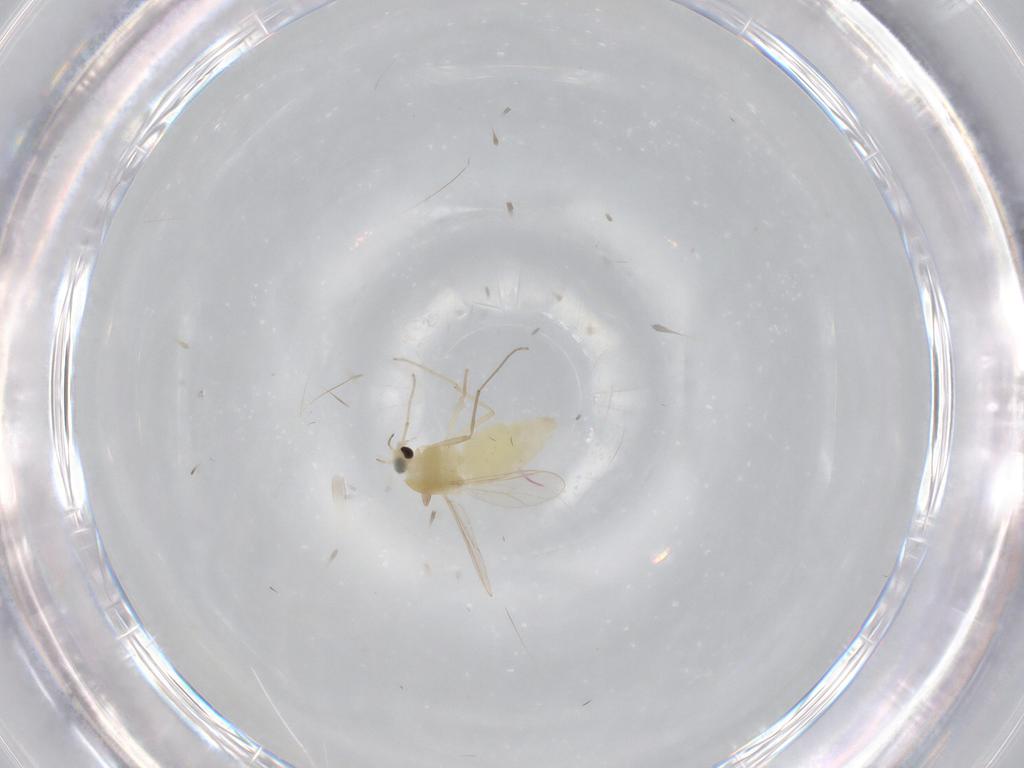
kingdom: Animalia
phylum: Arthropoda
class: Insecta
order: Diptera
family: Chironomidae
